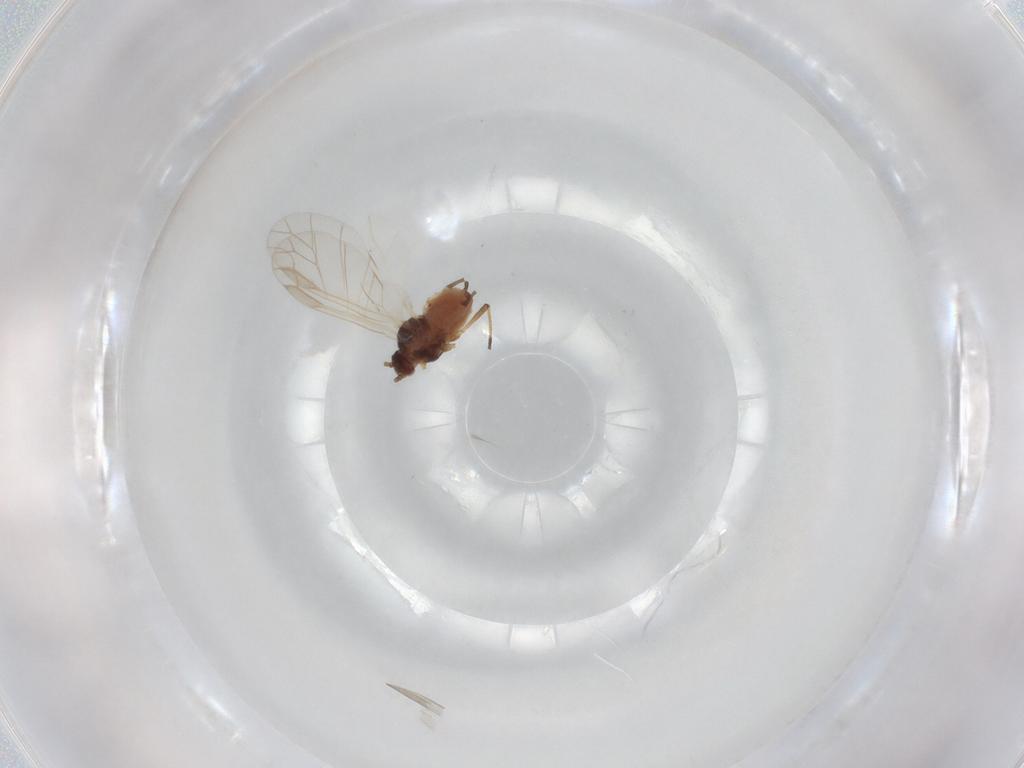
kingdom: Animalia
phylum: Arthropoda
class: Insecta
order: Hemiptera
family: Aphididae
